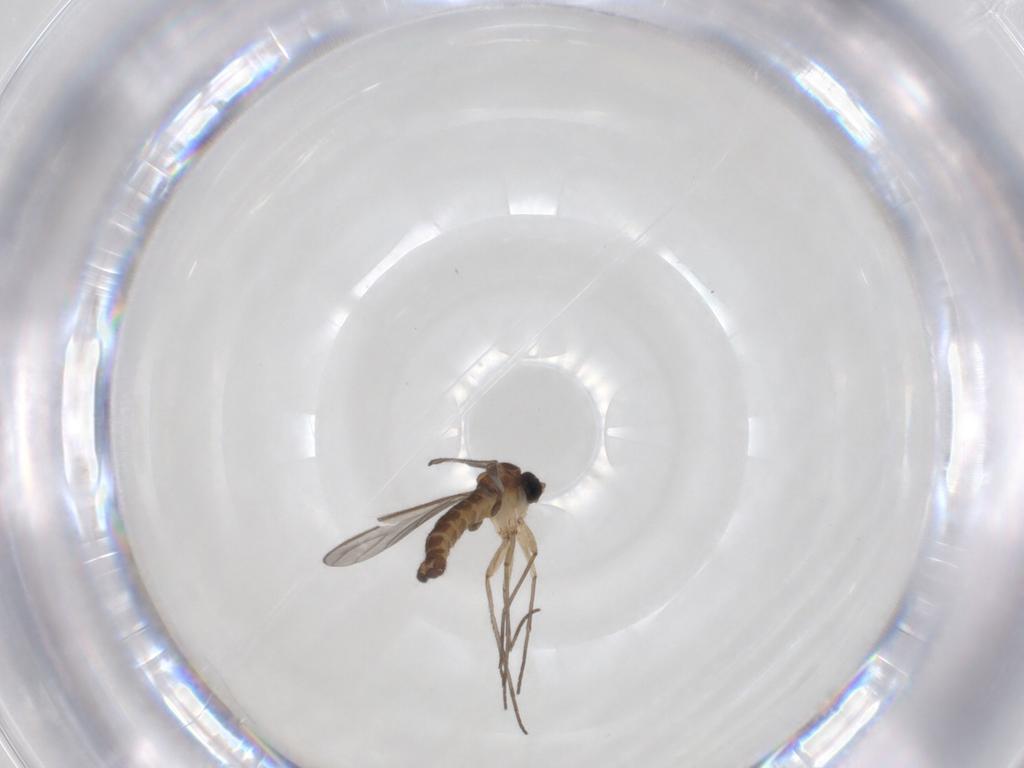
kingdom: Animalia
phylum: Arthropoda
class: Insecta
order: Diptera
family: Sciaridae
